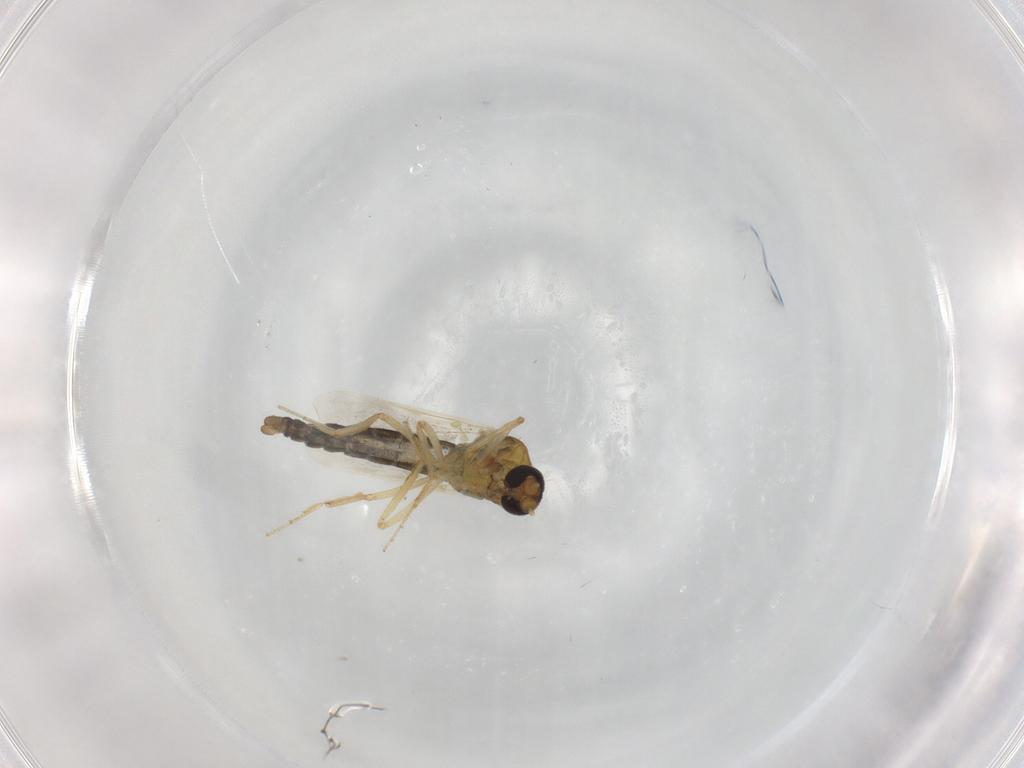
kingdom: Animalia
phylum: Arthropoda
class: Insecta
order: Diptera
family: Ceratopogonidae
